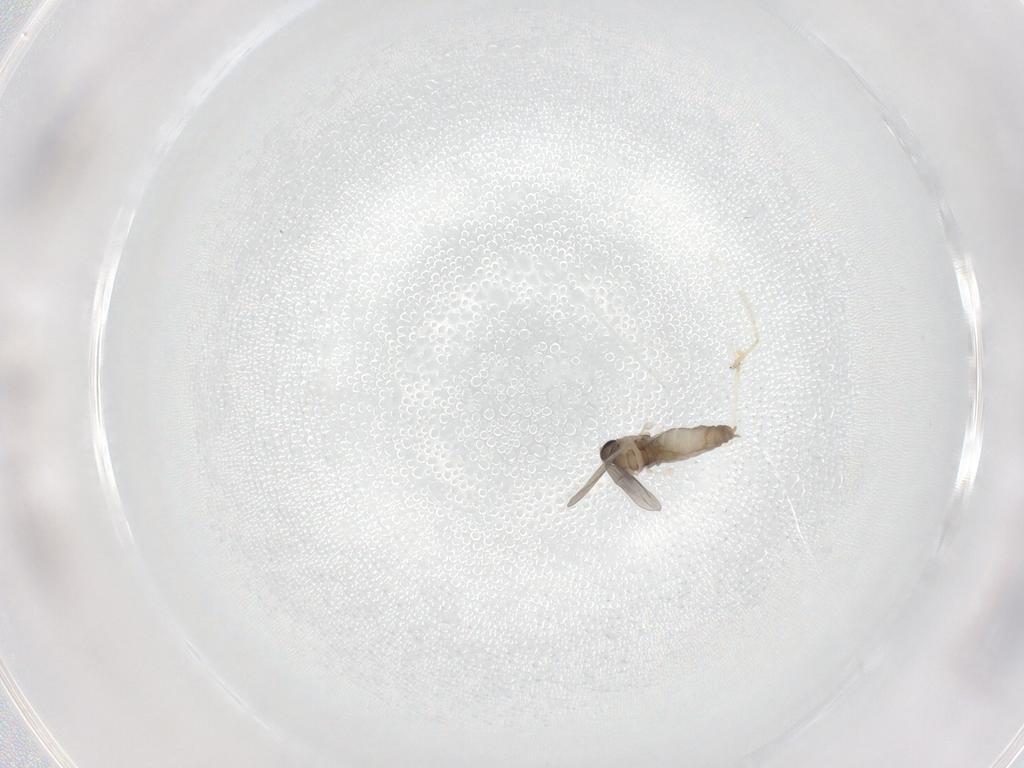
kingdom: Animalia
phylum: Arthropoda
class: Insecta
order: Diptera
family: Cecidomyiidae
